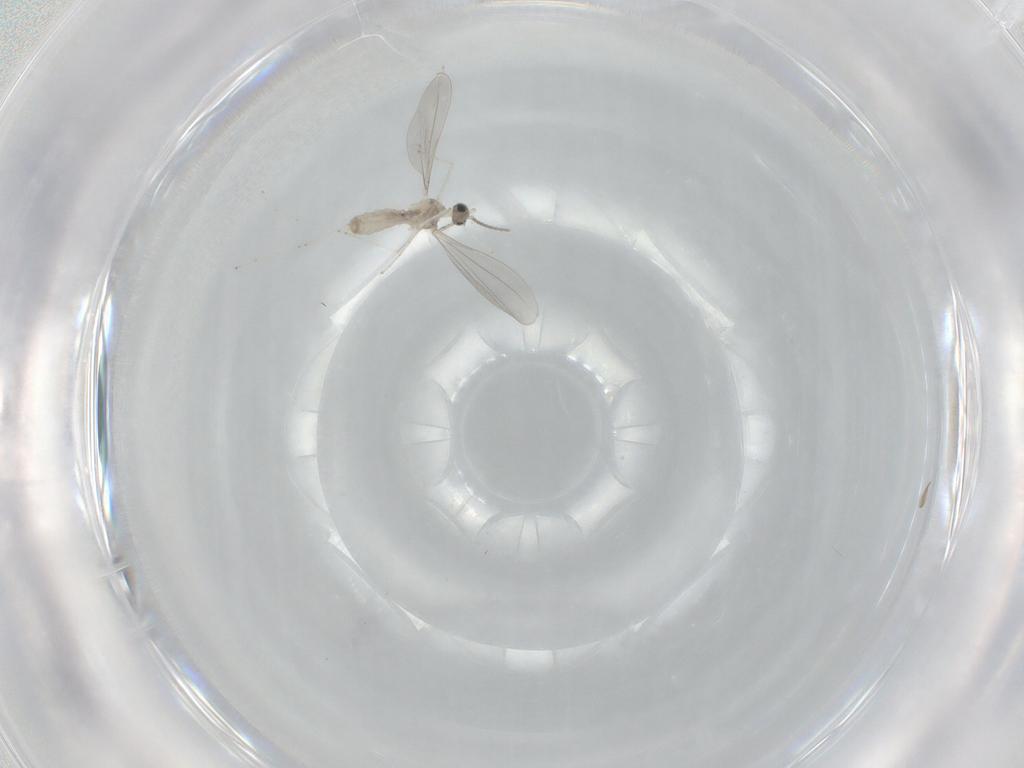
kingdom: Animalia
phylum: Arthropoda
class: Insecta
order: Diptera
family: Cecidomyiidae
